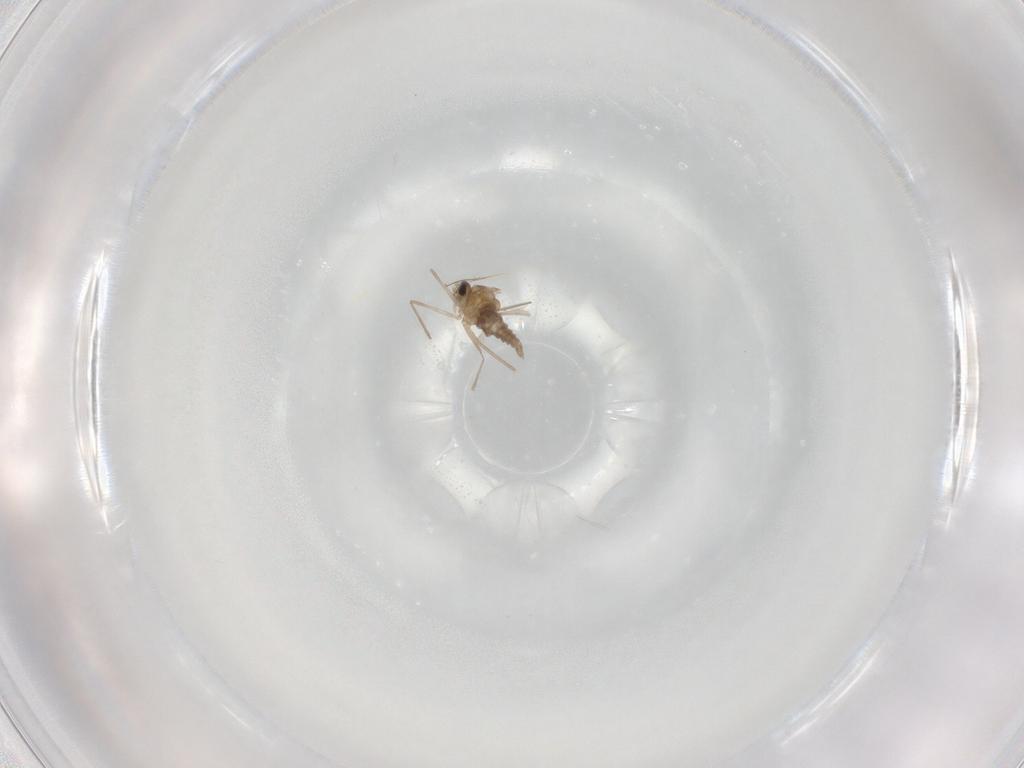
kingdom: Animalia
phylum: Arthropoda
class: Insecta
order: Diptera
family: Cecidomyiidae
